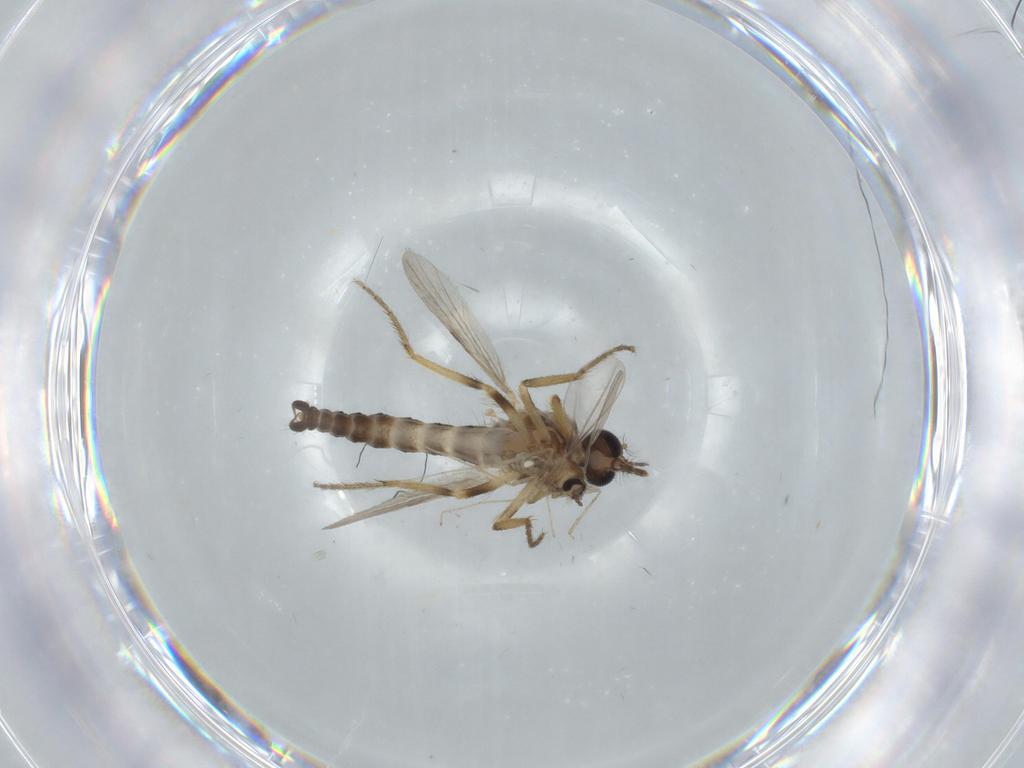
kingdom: Animalia
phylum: Arthropoda
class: Insecta
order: Diptera
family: Ceratopogonidae
